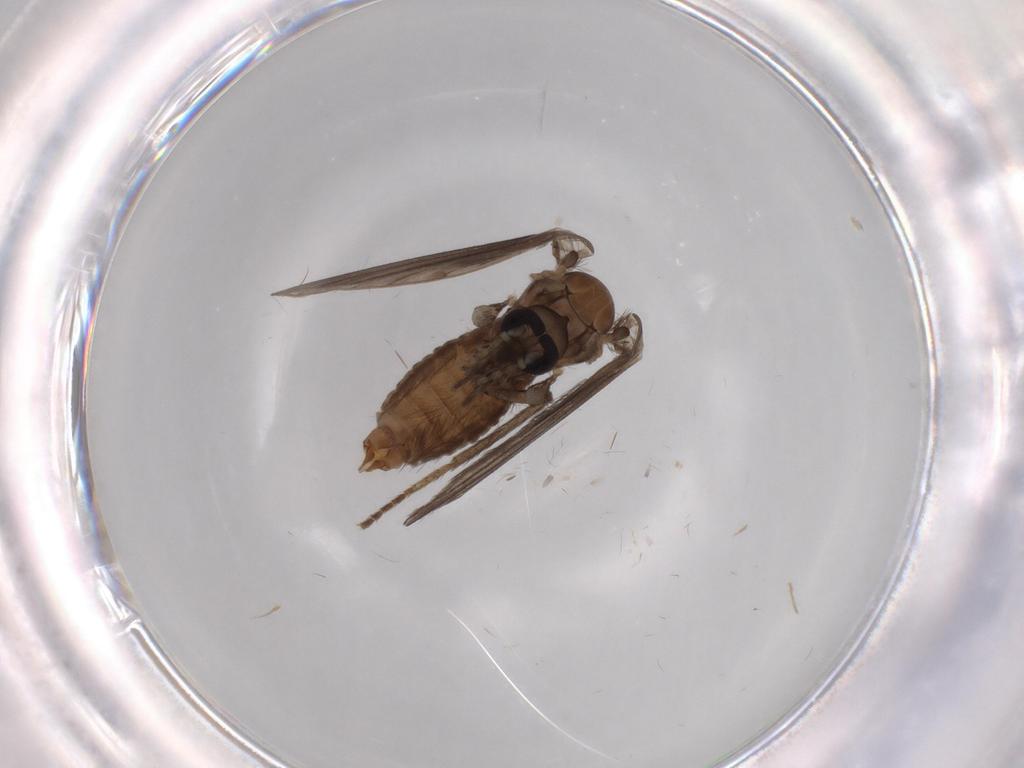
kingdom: Animalia
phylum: Arthropoda
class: Insecta
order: Diptera
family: Psychodidae
